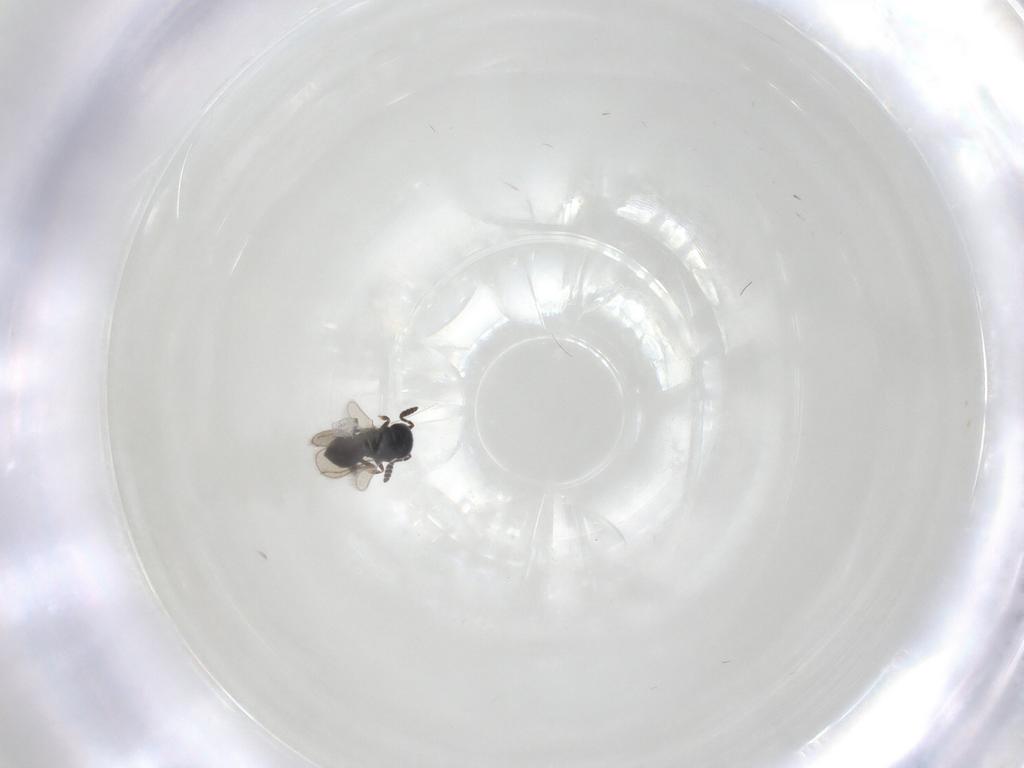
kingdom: Animalia
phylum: Arthropoda
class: Insecta
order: Hymenoptera
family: Scelionidae
